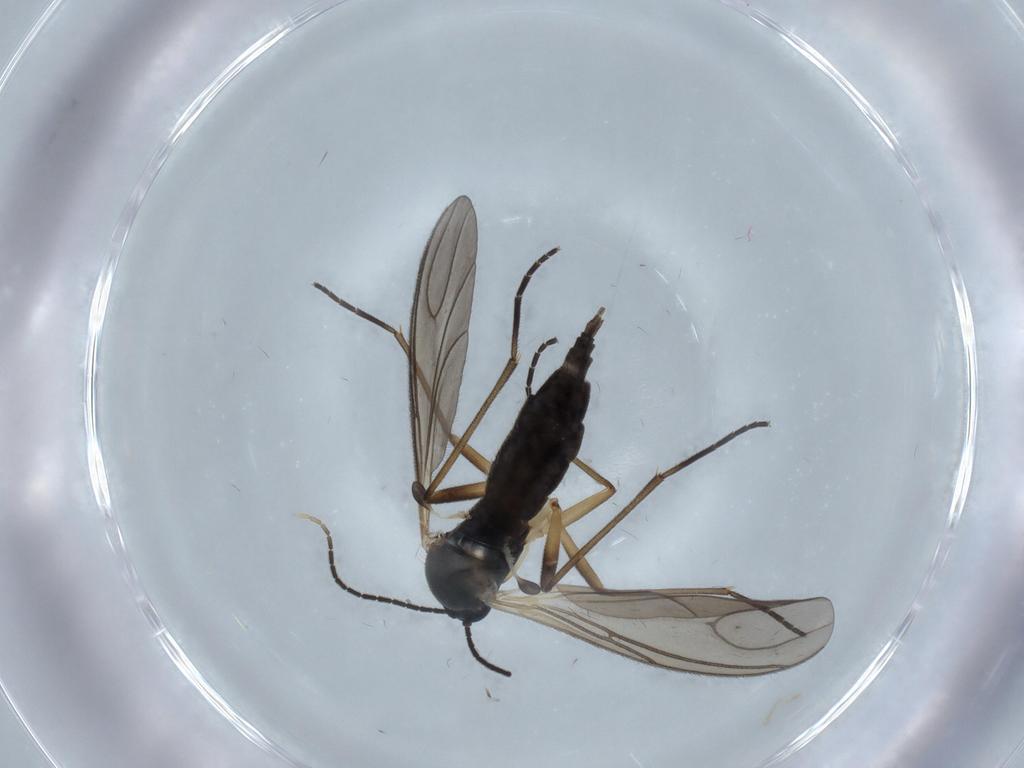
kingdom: Animalia
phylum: Arthropoda
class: Insecta
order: Diptera
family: Sciaridae
